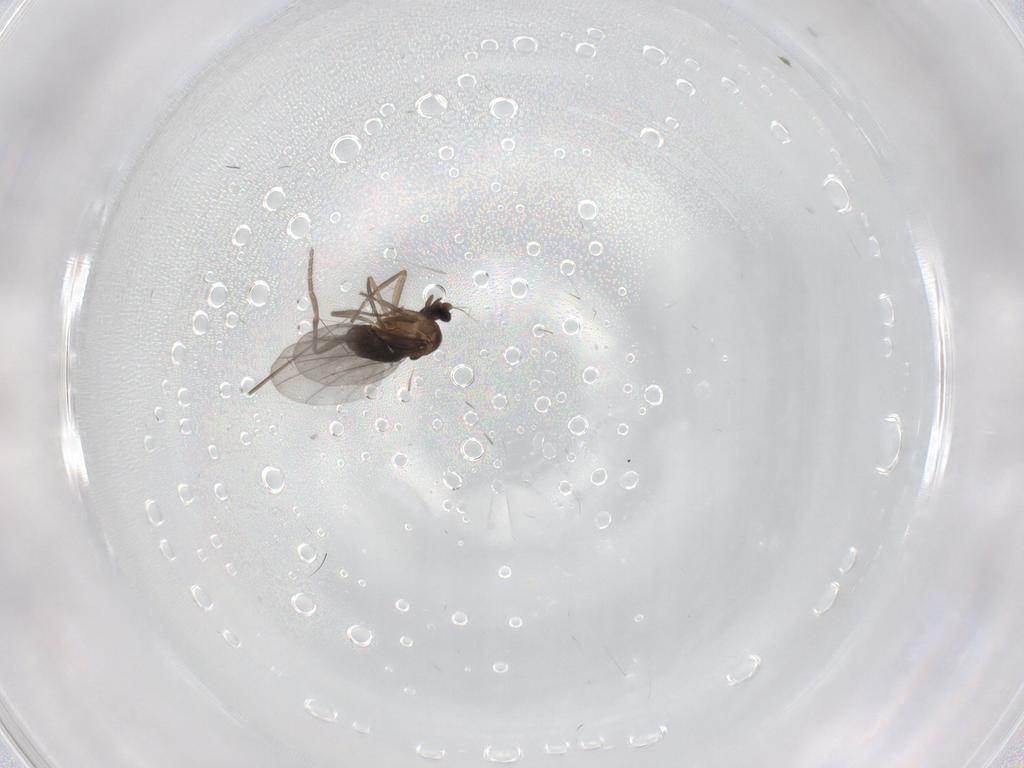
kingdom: Animalia
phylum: Arthropoda
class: Insecta
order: Diptera
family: Phoridae
